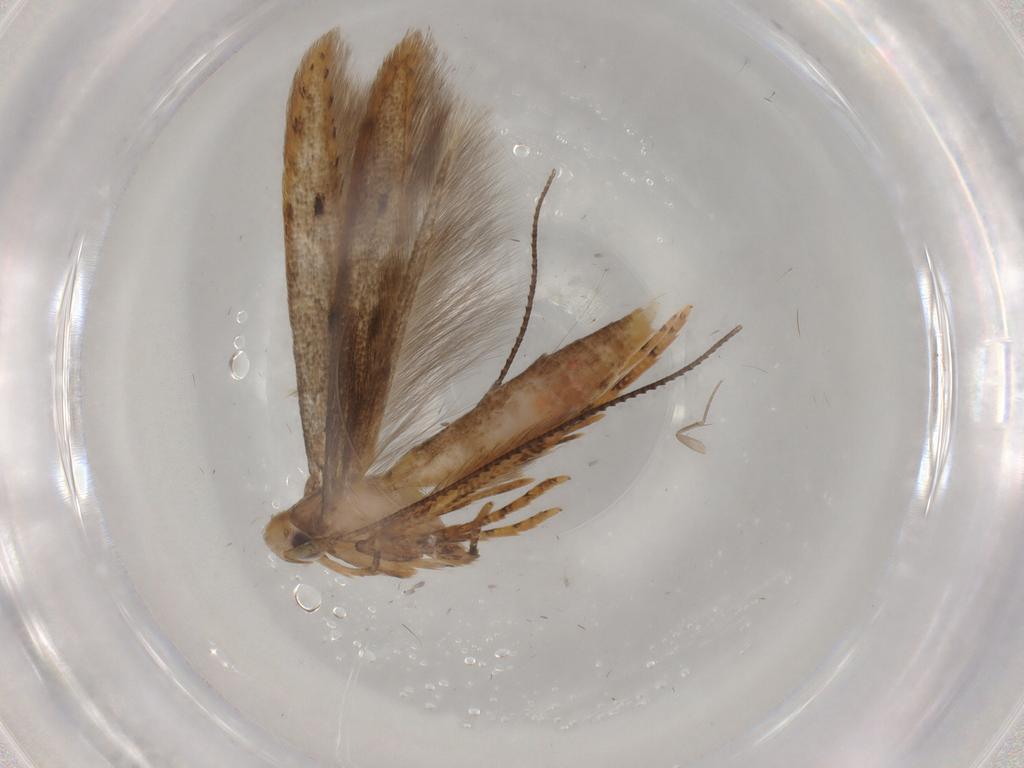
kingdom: Animalia
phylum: Arthropoda
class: Insecta
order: Lepidoptera
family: Gelechiidae
